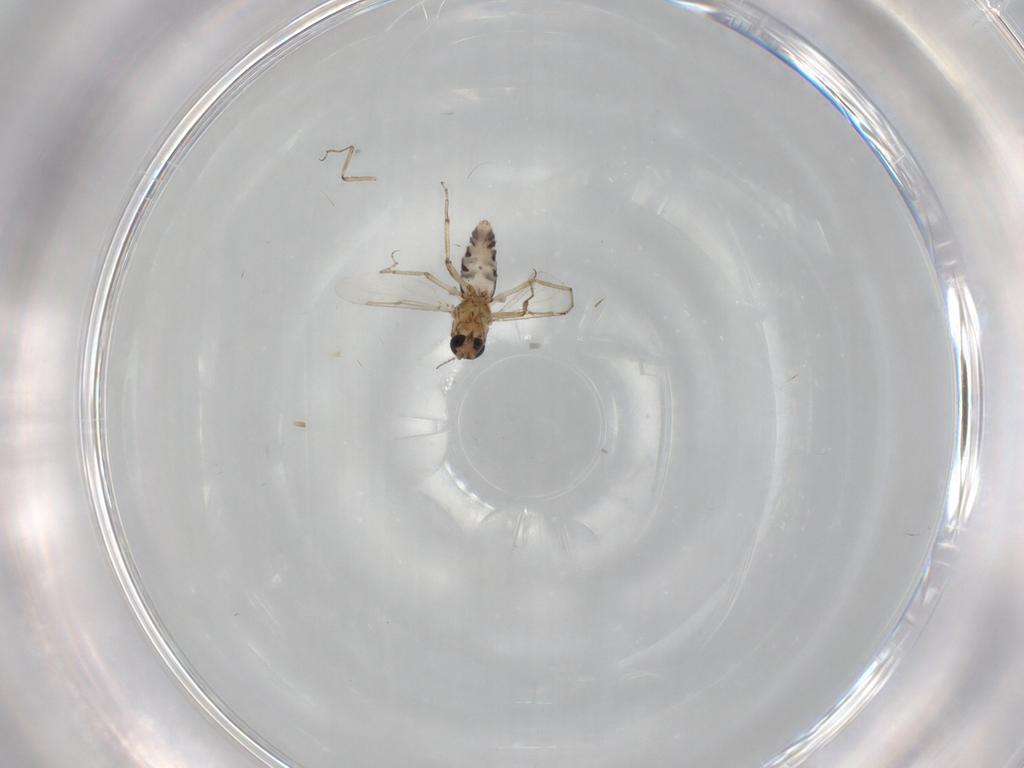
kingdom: Animalia
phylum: Arthropoda
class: Insecta
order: Diptera
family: Ceratopogonidae
